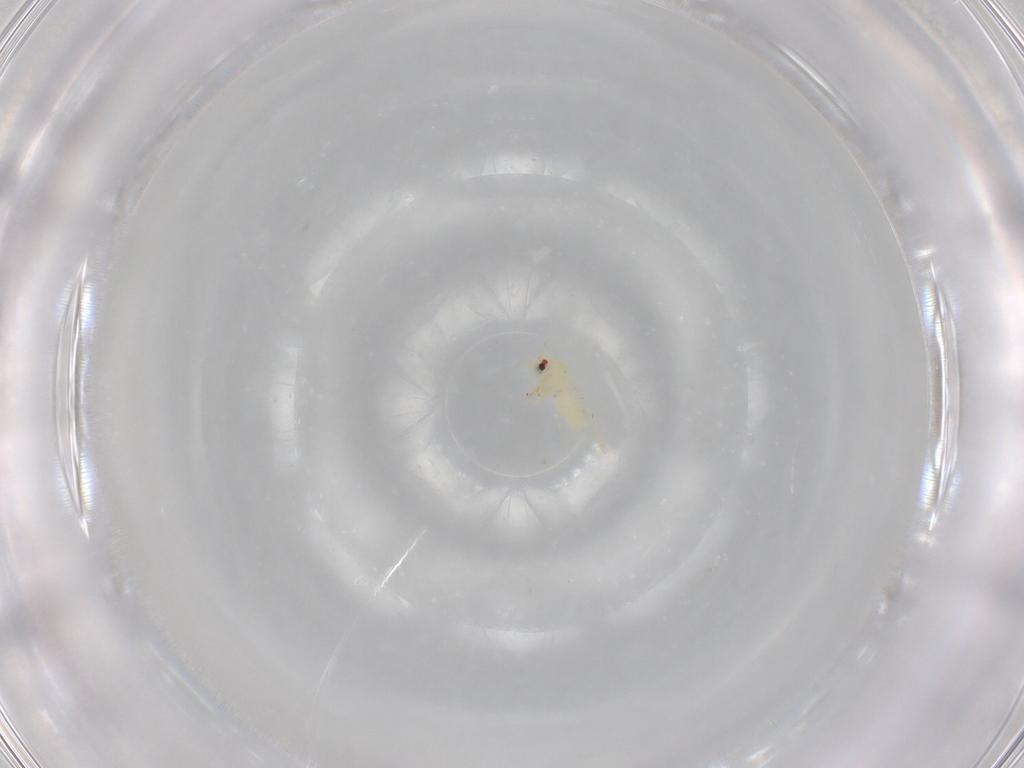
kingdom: Animalia
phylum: Arthropoda
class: Insecta
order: Hemiptera
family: Aleyrodidae
